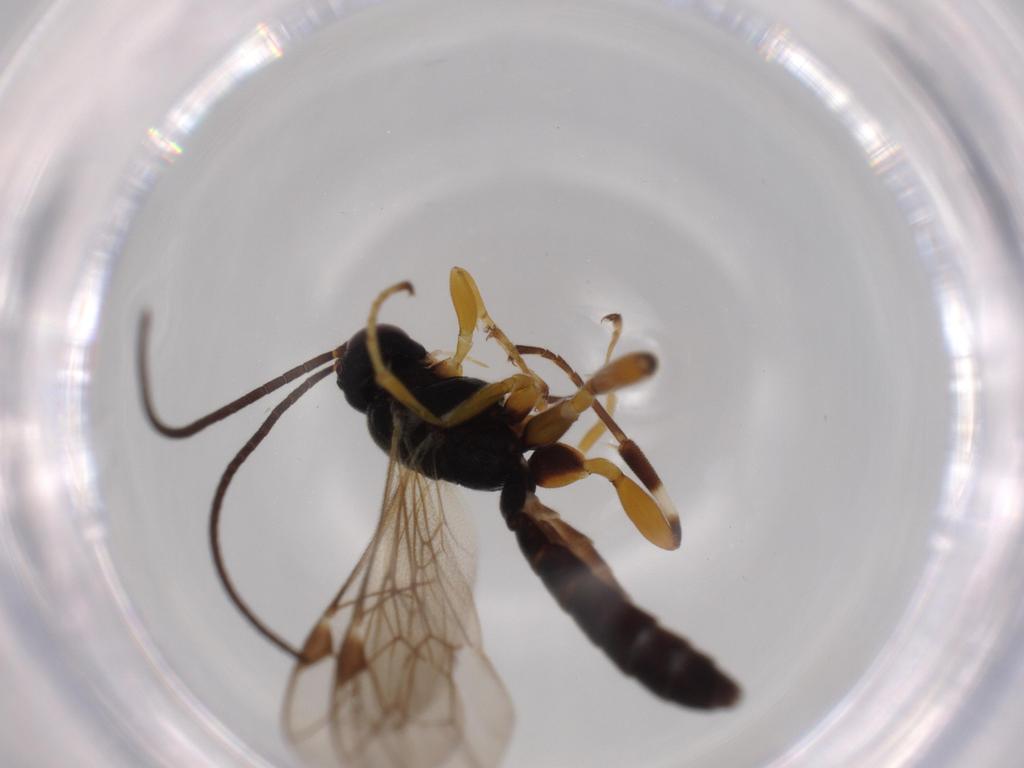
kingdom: Animalia
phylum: Arthropoda
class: Insecta
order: Hymenoptera
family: Ichneumonidae
